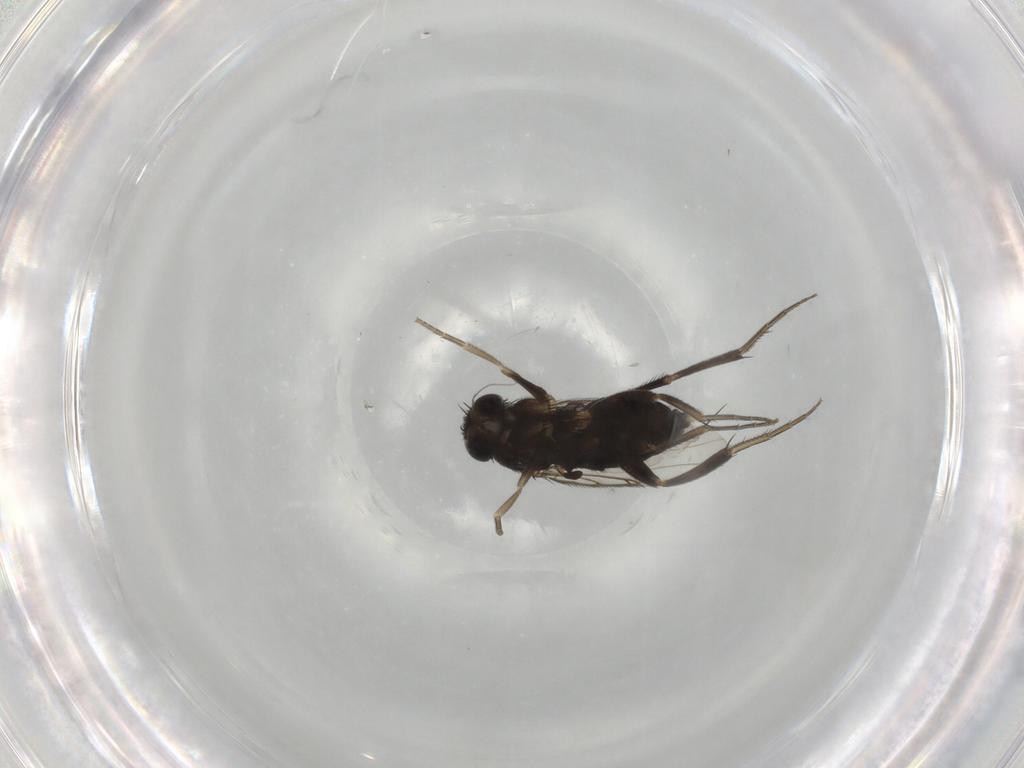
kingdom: Animalia
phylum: Arthropoda
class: Insecta
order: Diptera
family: Phoridae
